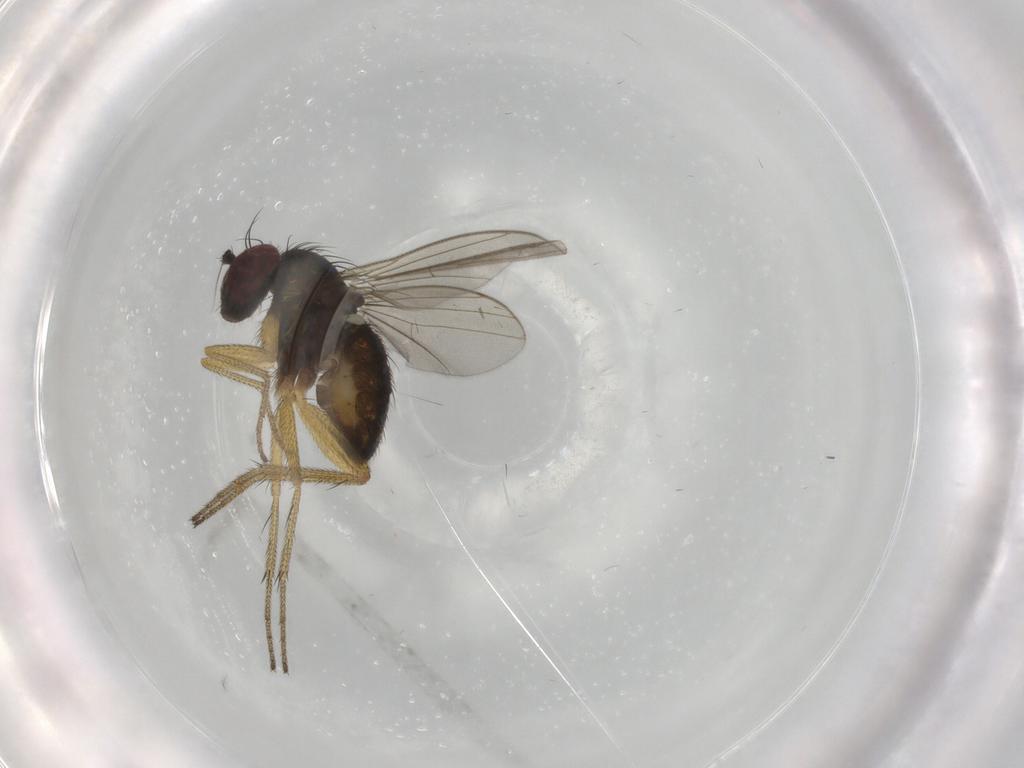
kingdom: Animalia
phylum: Arthropoda
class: Insecta
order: Diptera
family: Dolichopodidae
